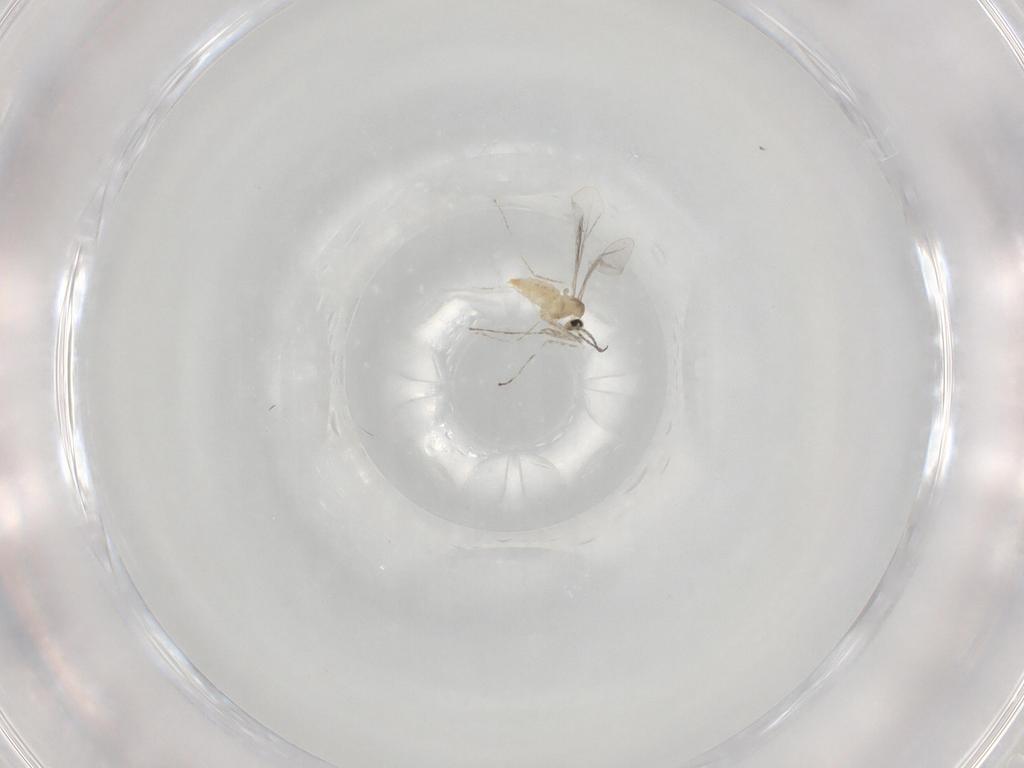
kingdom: Animalia
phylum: Arthropoda
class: Insecta
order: Diptera
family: Cecidomyiidae
